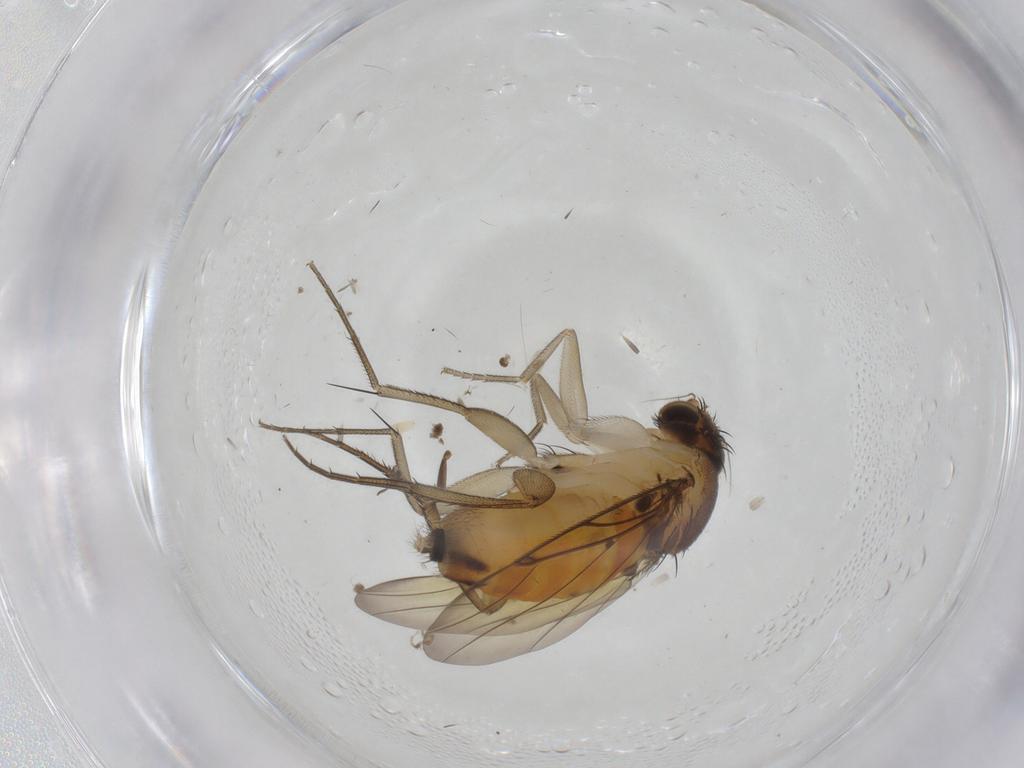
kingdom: Animalia
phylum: Arthropoda
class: Insecta
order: Diptera
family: Phoridae
